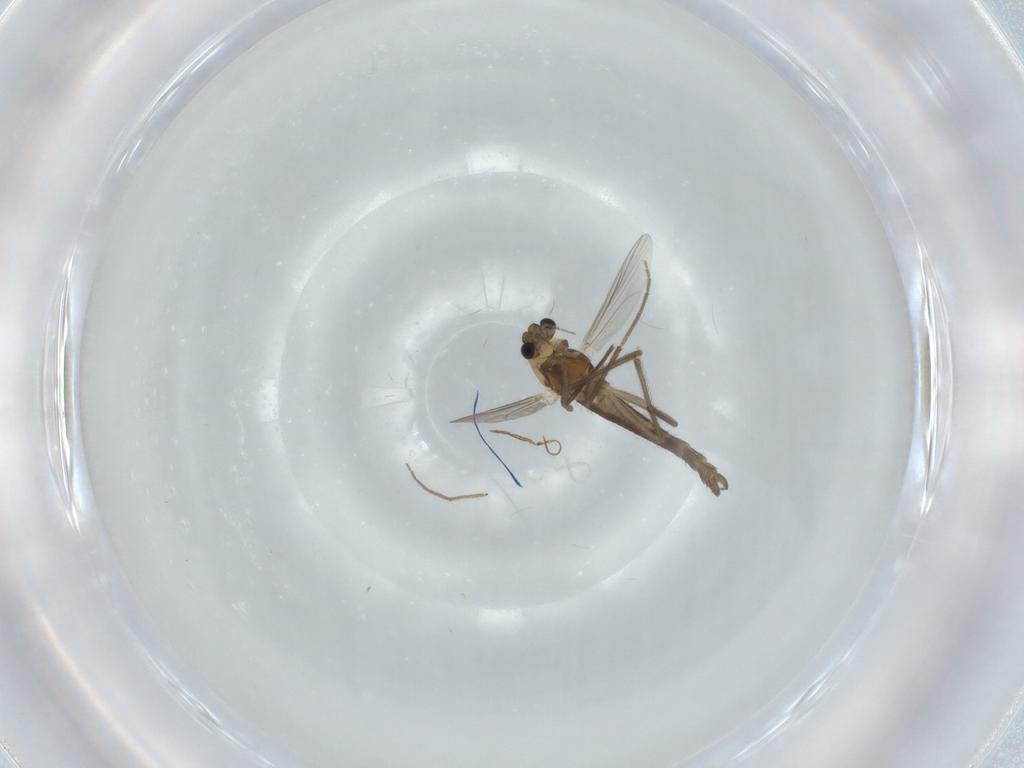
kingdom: Animalia
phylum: Arthropoda
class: Insecta
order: Diptera
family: Chironomidae
